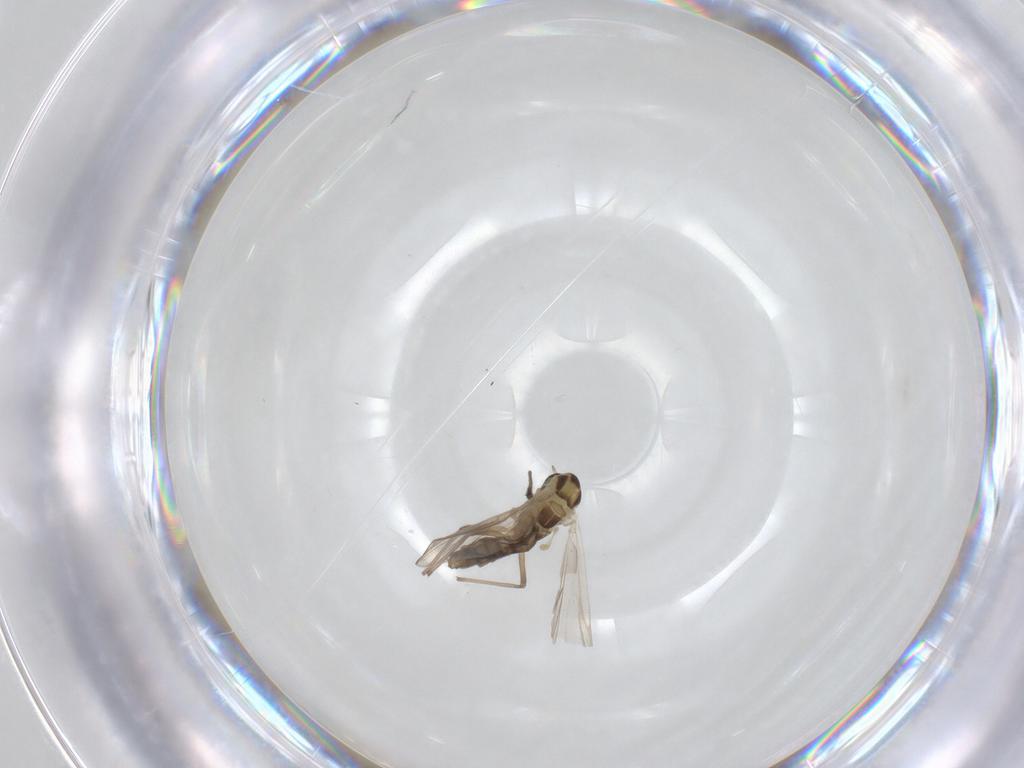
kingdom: Animalia
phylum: Arthropoda
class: Insecta
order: Diptera
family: Chironomidae
